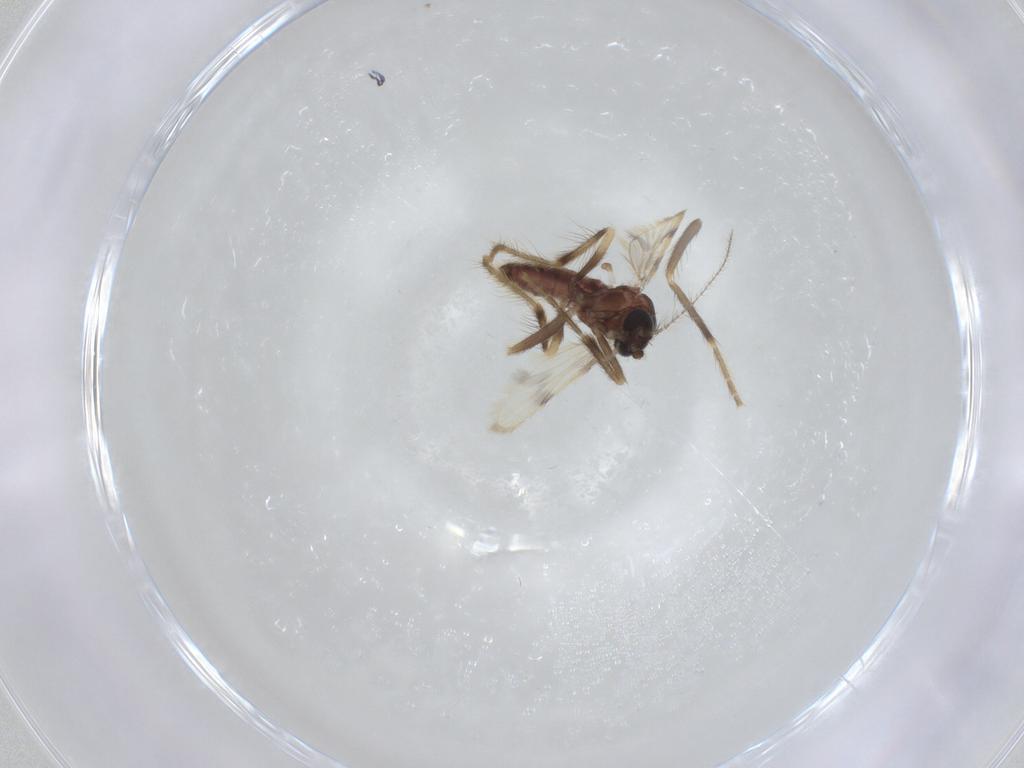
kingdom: Animalia
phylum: Arthropoda
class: Insecta
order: Diptera
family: Corethrellidae
